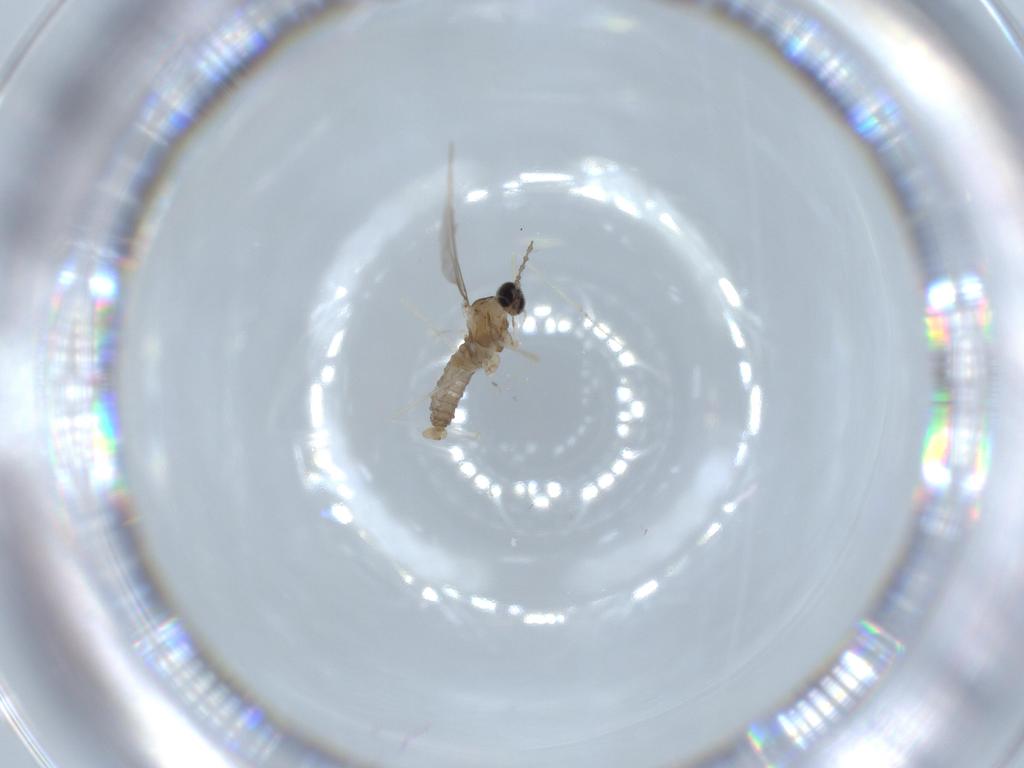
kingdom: Animalia
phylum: Arthropoda
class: Insecta
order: Diptera
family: Cecidomyiidae
